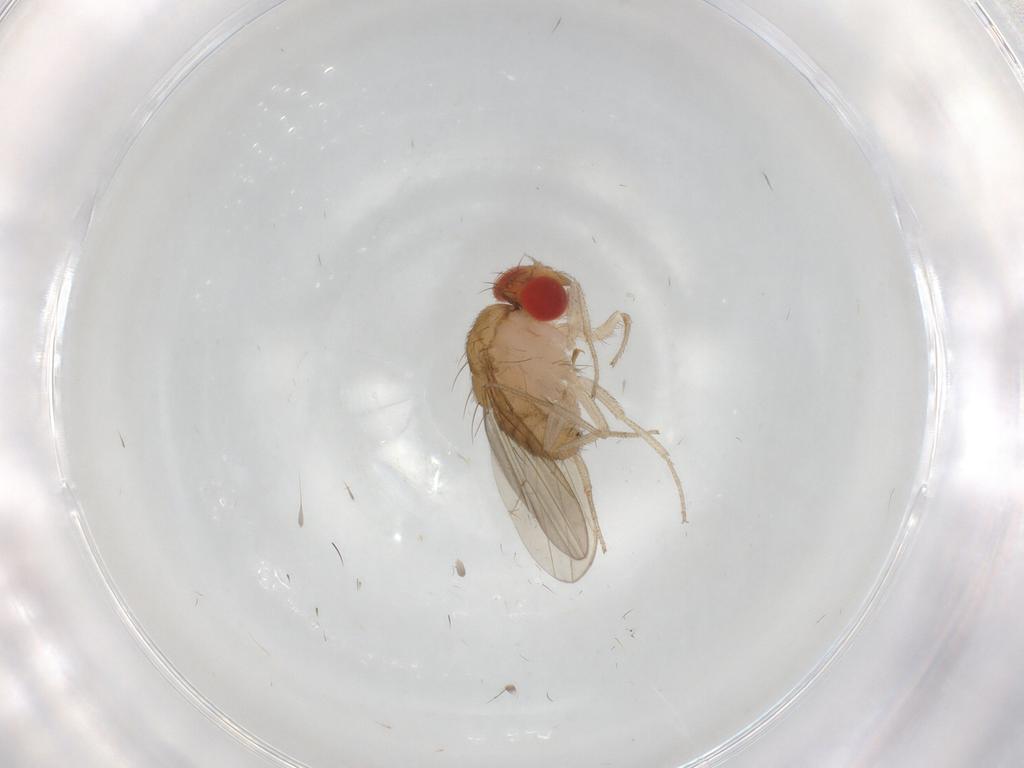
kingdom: Animalia
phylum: Arthropoda
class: Insecta
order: Diptera
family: Drosophilidae
